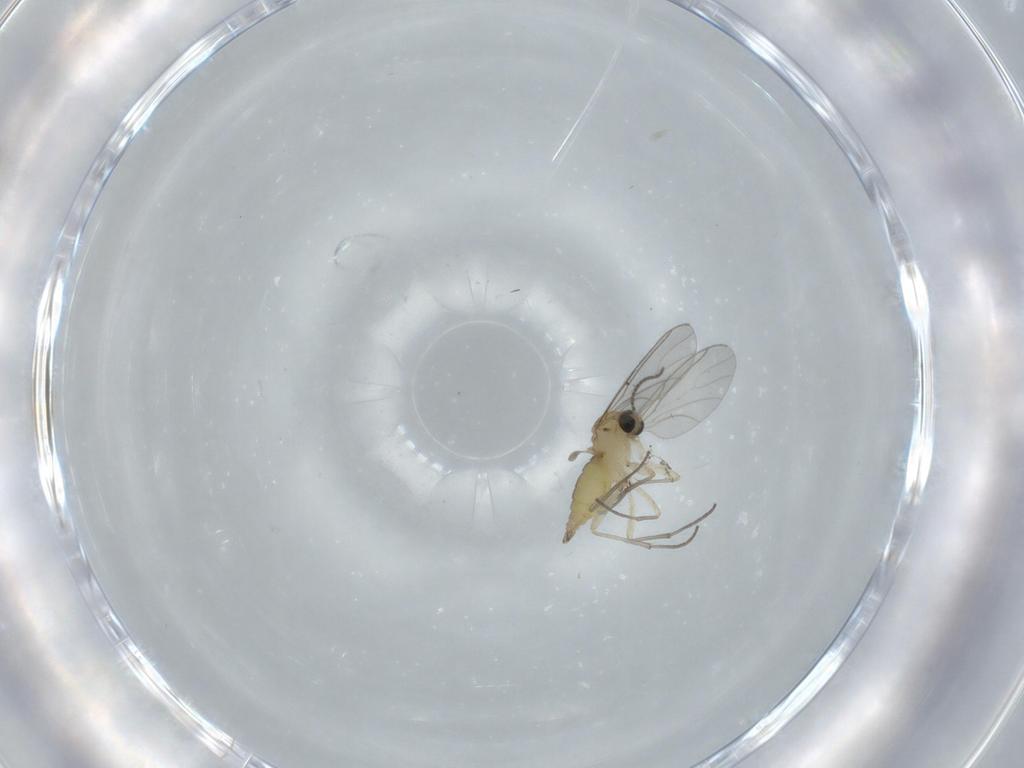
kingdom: Animalia
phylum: Arthropoda
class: Insecta
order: Diptera
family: Sciaridae
